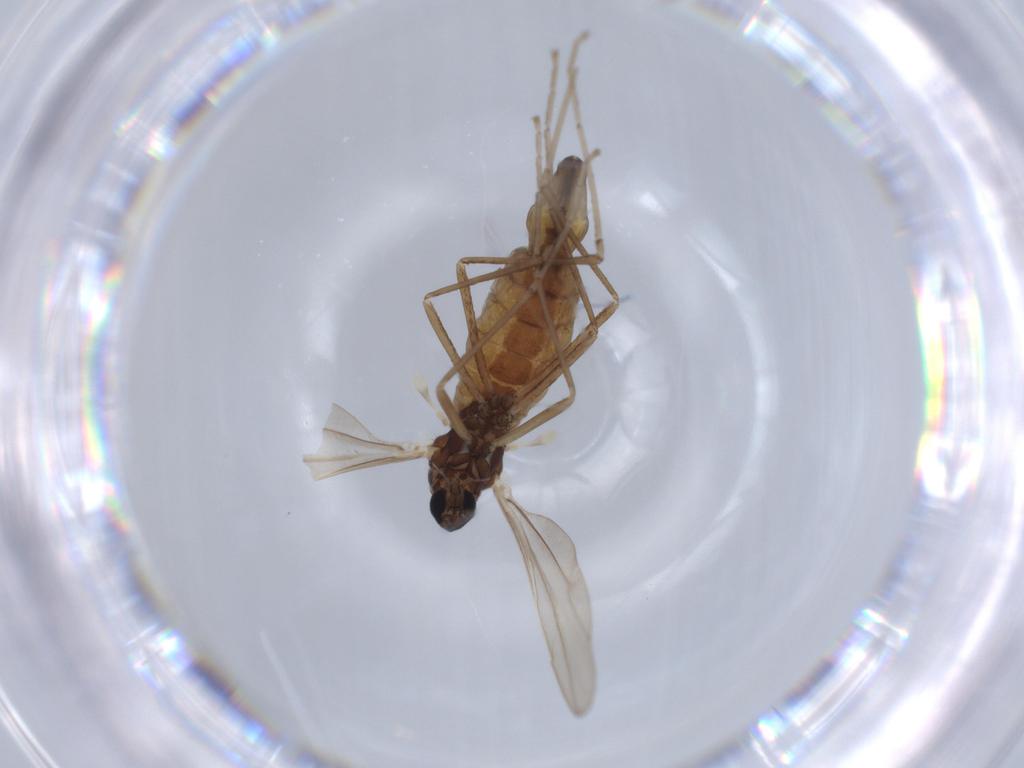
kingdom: Animalia
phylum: Arthropoda
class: Insecta
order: Diptera
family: Cecidomyiidae
